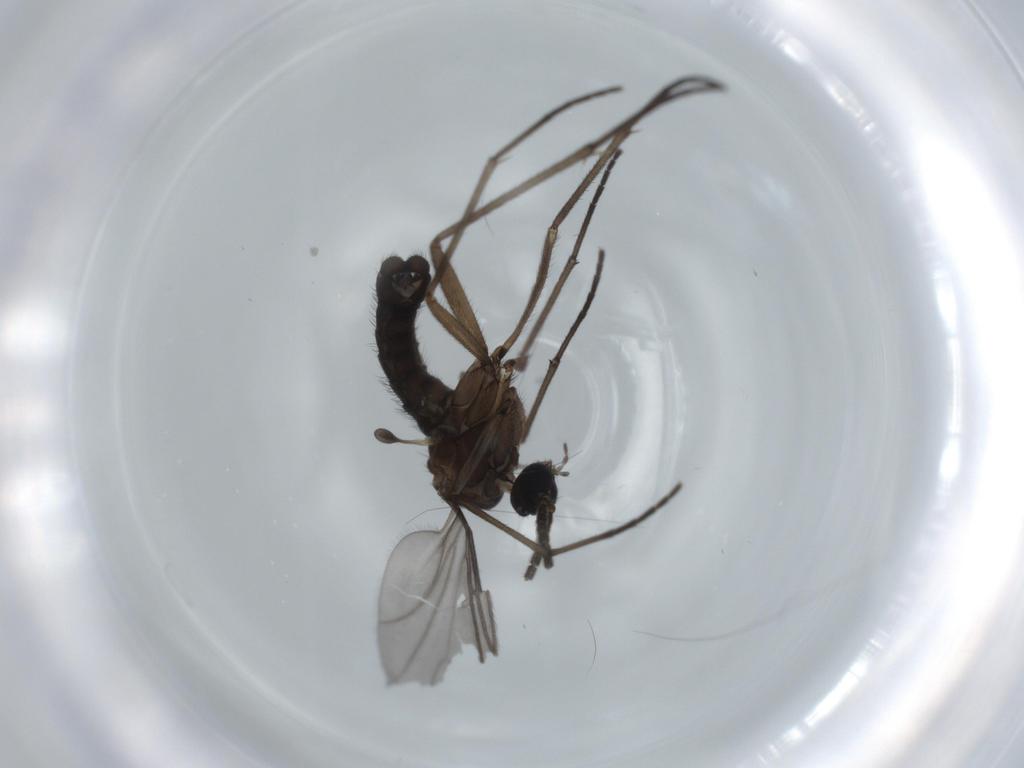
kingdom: Animalia
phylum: Arthropoda
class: Insecta
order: Diptera
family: Sciaridae
